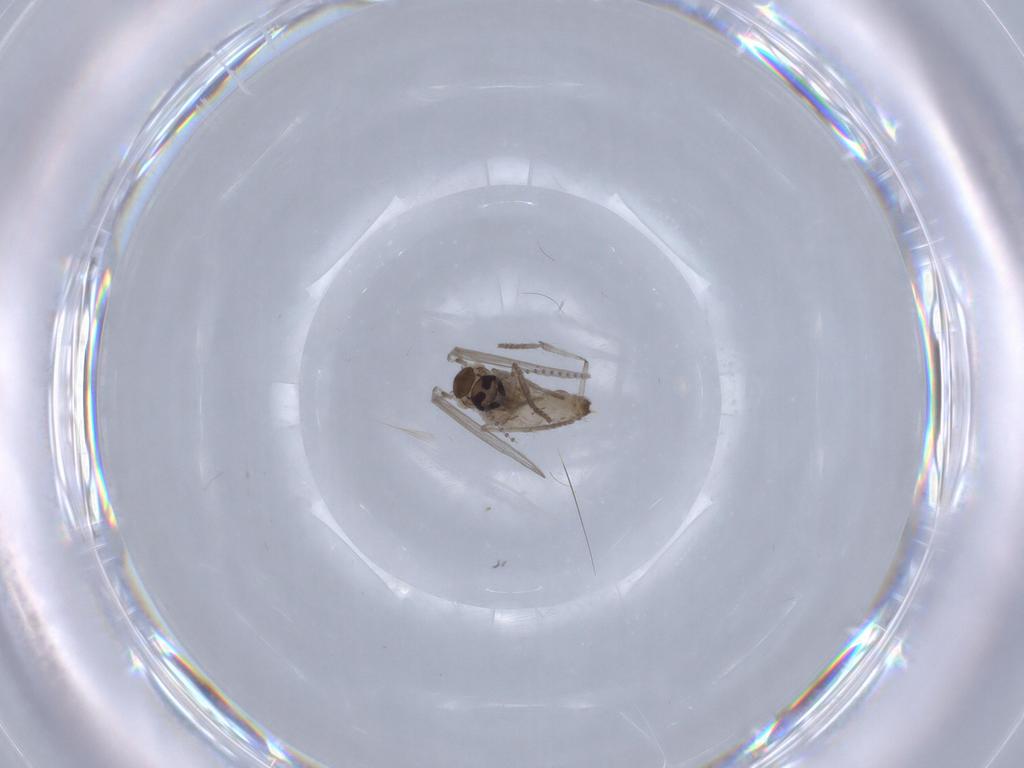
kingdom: Animalia
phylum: Arthropoda
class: Insecta
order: Diptera
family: Psychodidae
